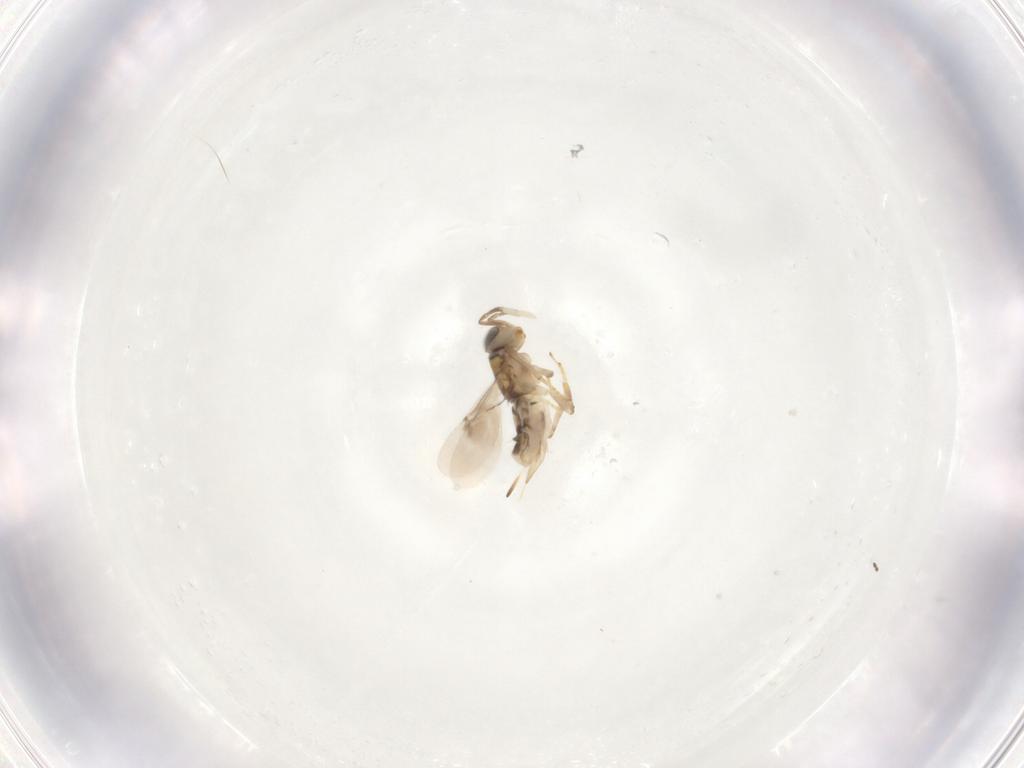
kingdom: Animalia
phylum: Arthropoda
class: Insecta
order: Hymenoptera
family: Encyrtidae
